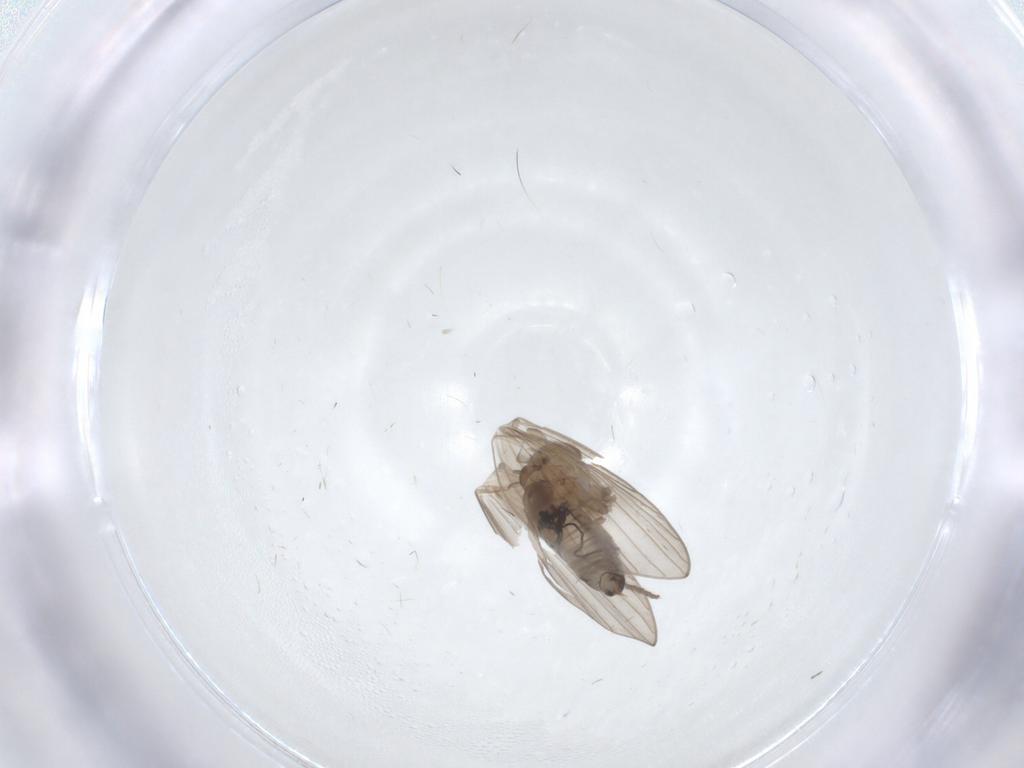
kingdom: Animalia
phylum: Arthropoda
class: Insecta
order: Diptera
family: Psychodidae
